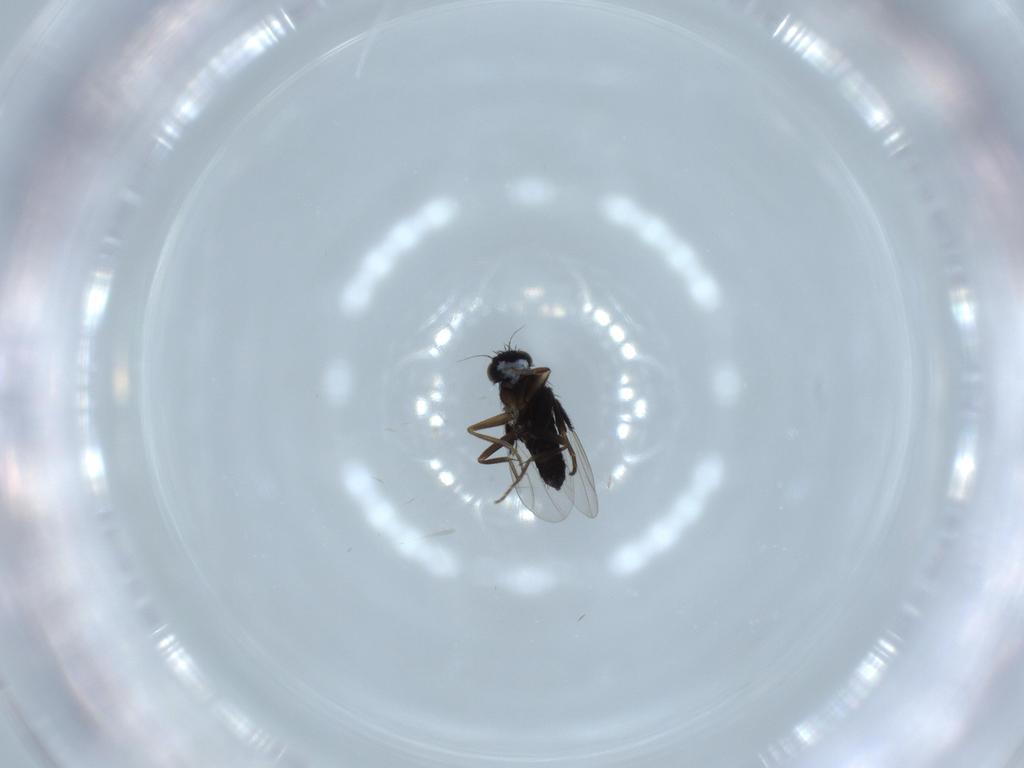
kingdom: Animalia
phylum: Arthropoda
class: Insecta
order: Diptera
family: Phoridae
